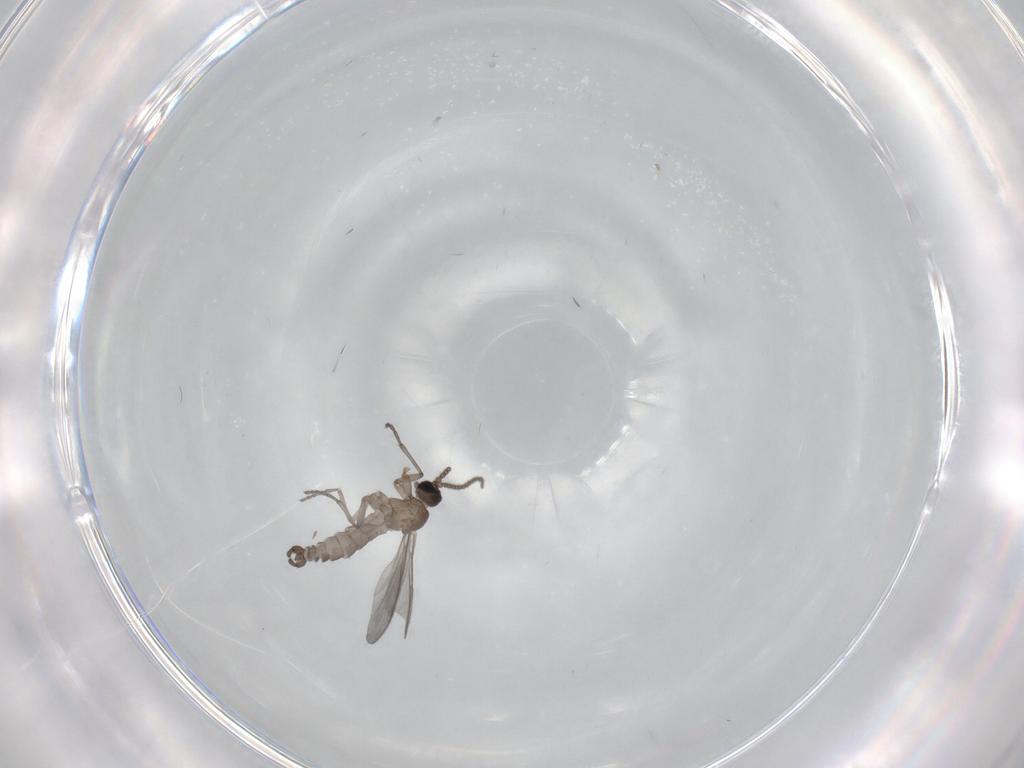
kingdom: Animalia
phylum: Arthropoda
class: Insecta
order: Diptera
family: Sciaridae
